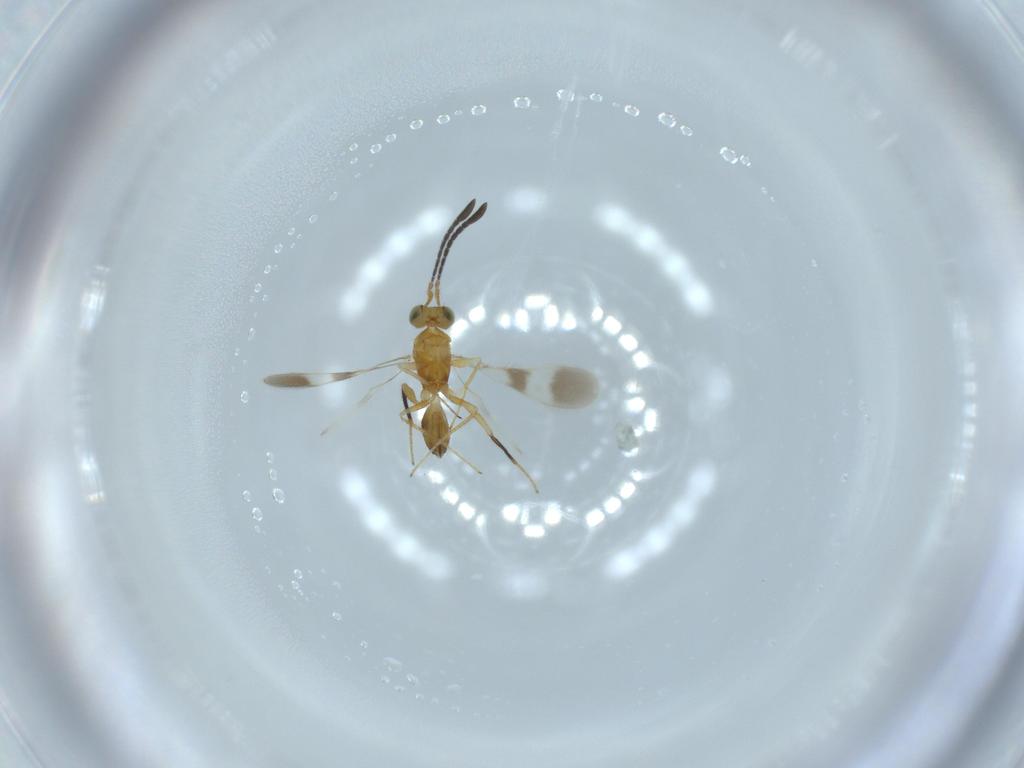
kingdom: Animalia
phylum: Arthropoda
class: Insecta
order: Hymenoptera
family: Mymaridae
